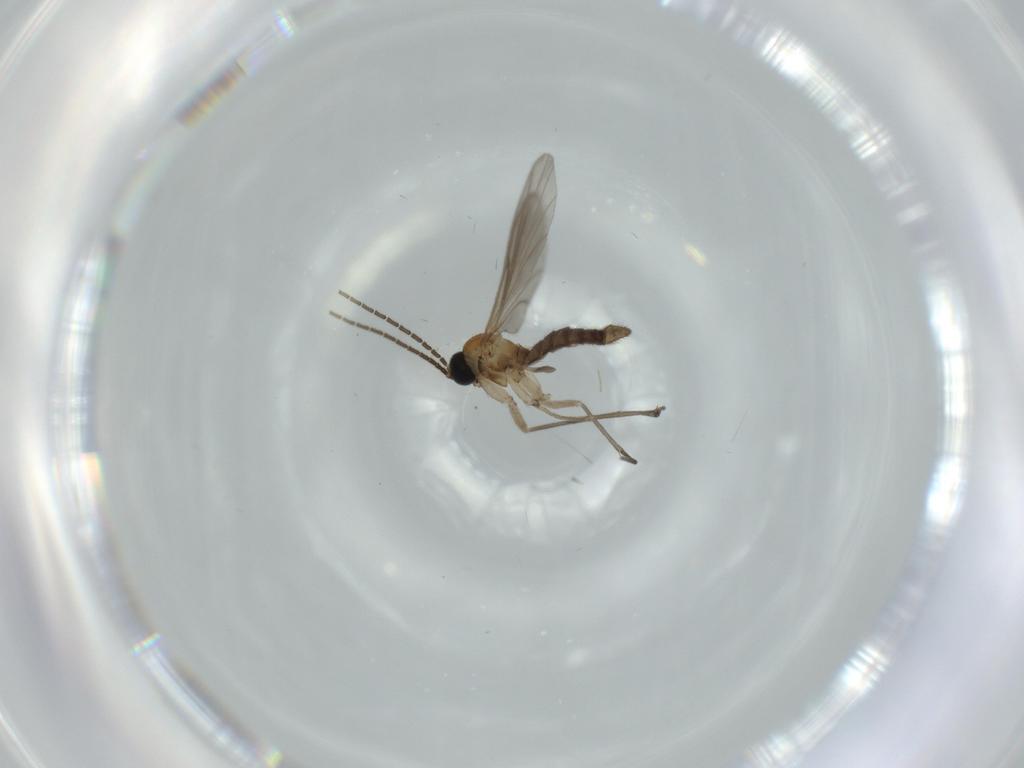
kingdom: Animalia
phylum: Arthropoda
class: Insecta
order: Diptera
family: Sciaridae
